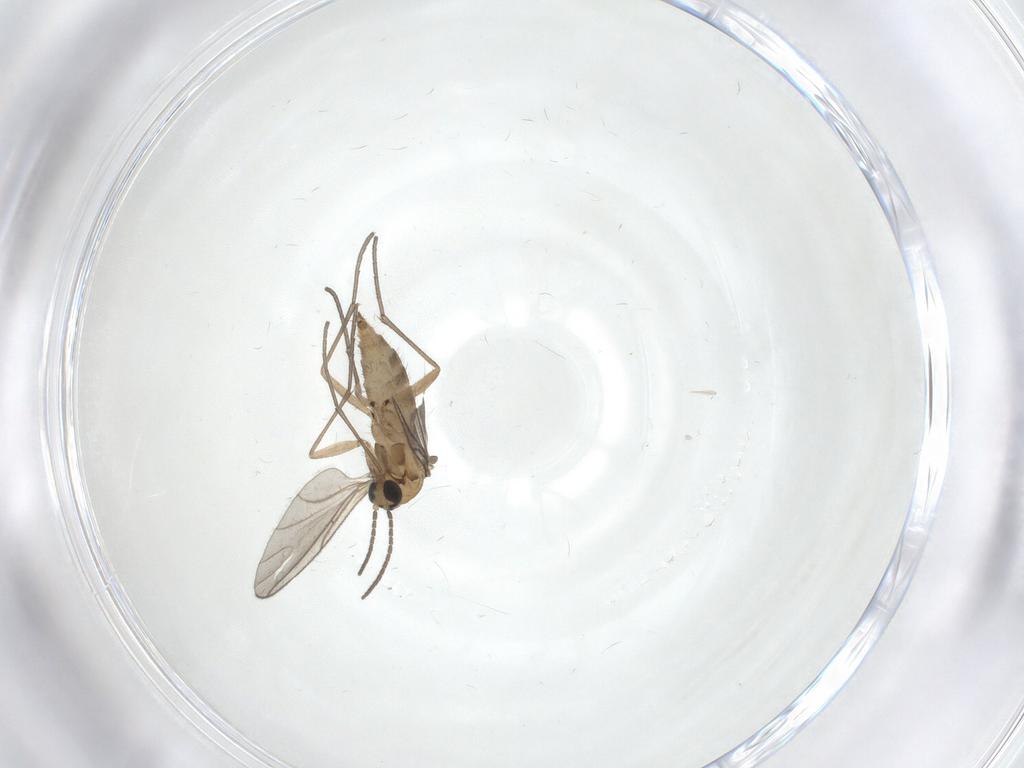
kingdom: Animalia
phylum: Arthropoda
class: Insecta
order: Diptera
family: Sciaridae
